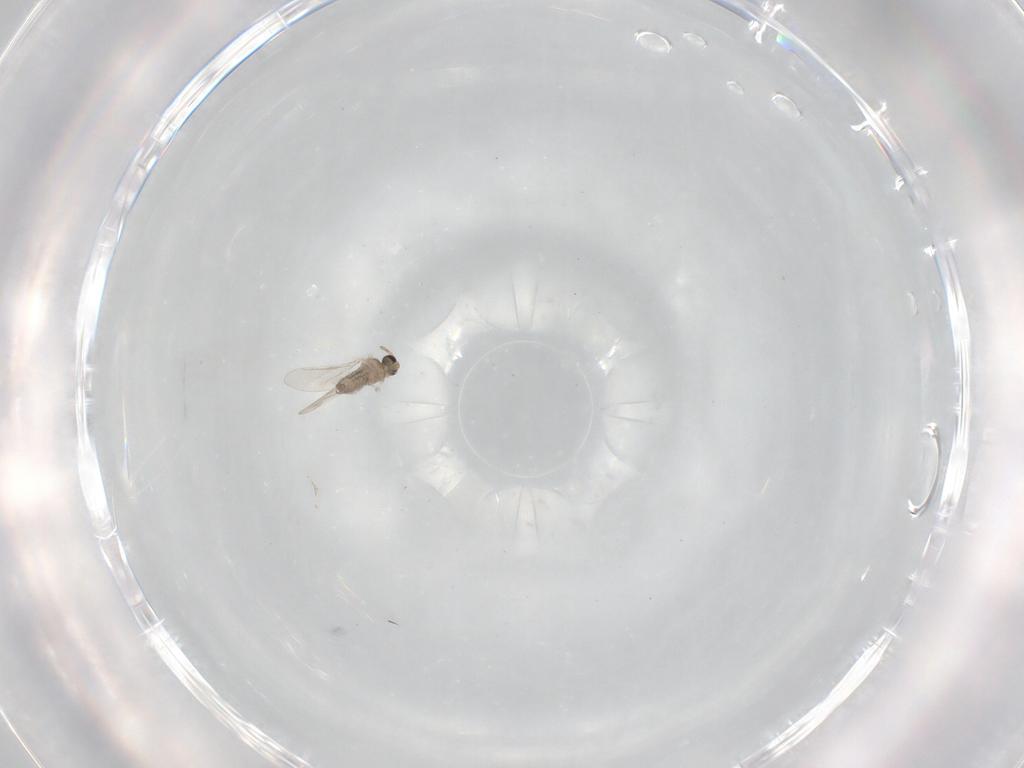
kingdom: Animalia
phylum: Arthropoda
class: Insecta
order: Diptera
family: Cecidomyiidae
